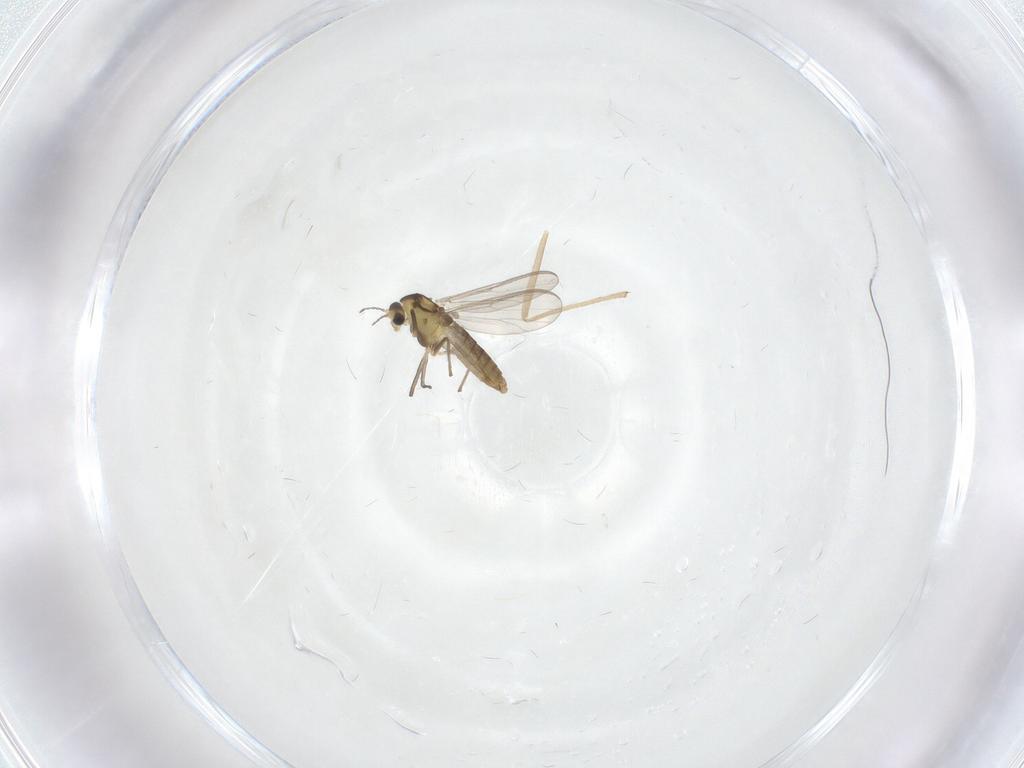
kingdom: Animalia
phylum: Arthropoda
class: Insecta
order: Diptera
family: Chironomidae
